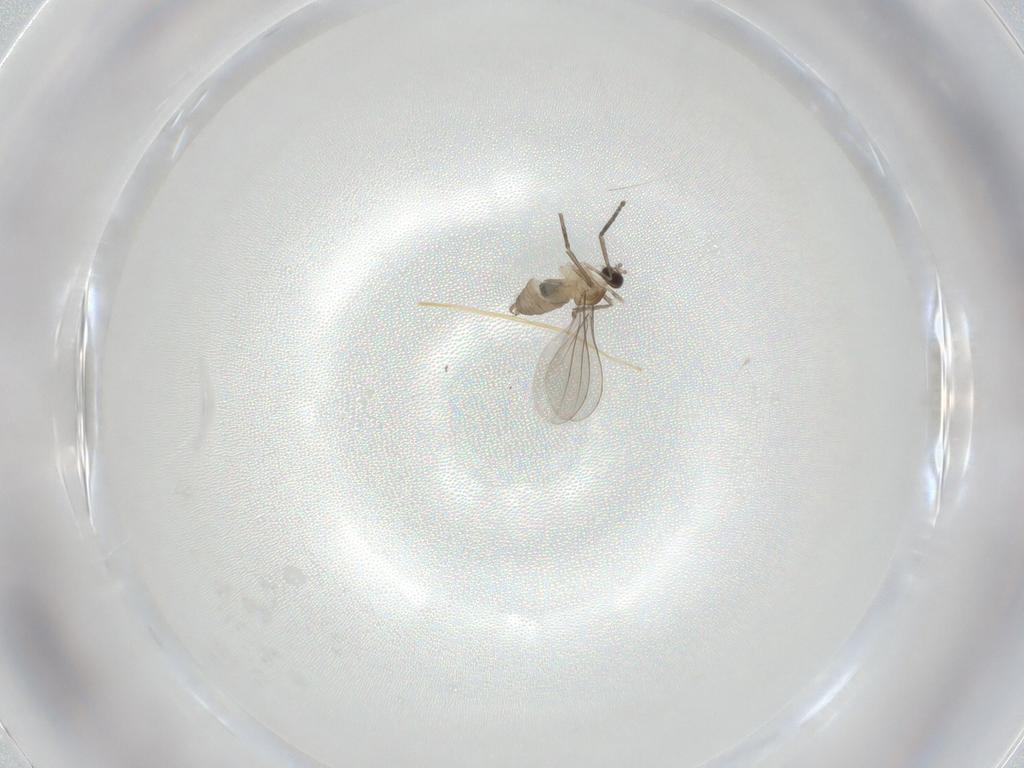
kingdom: Animalia
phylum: Arthropoda
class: Insecta
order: Diptera
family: Cecidomyiidae
